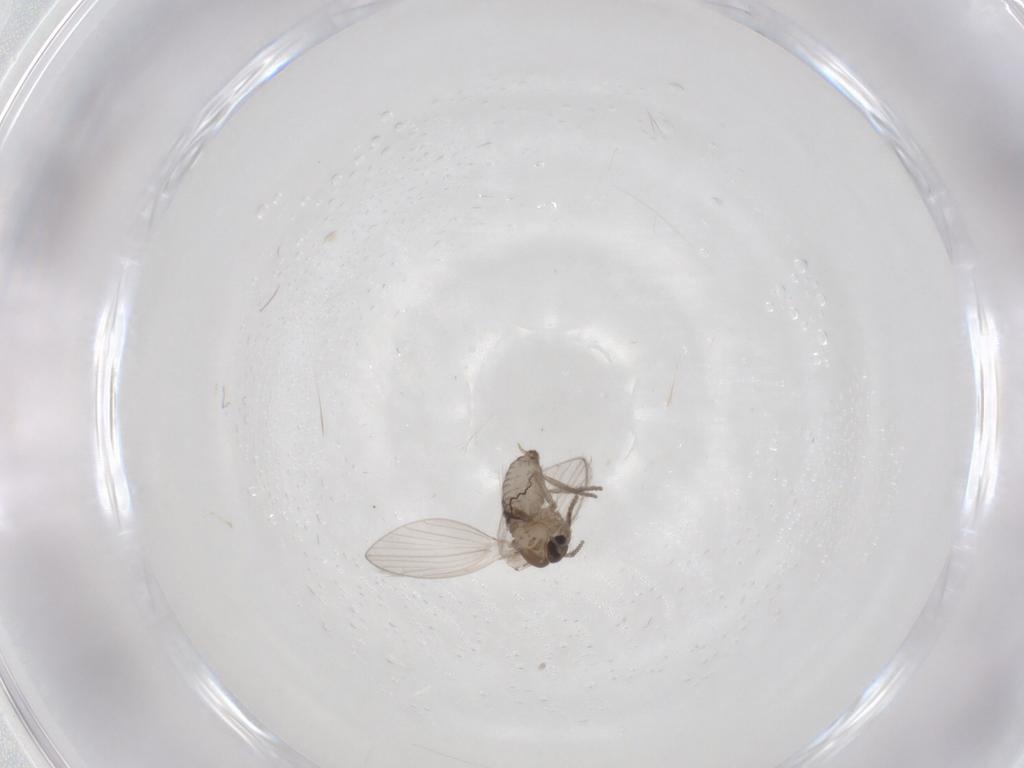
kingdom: Animalia
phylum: Arthropoda
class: Insecta
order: Diptera
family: Psychodidae
